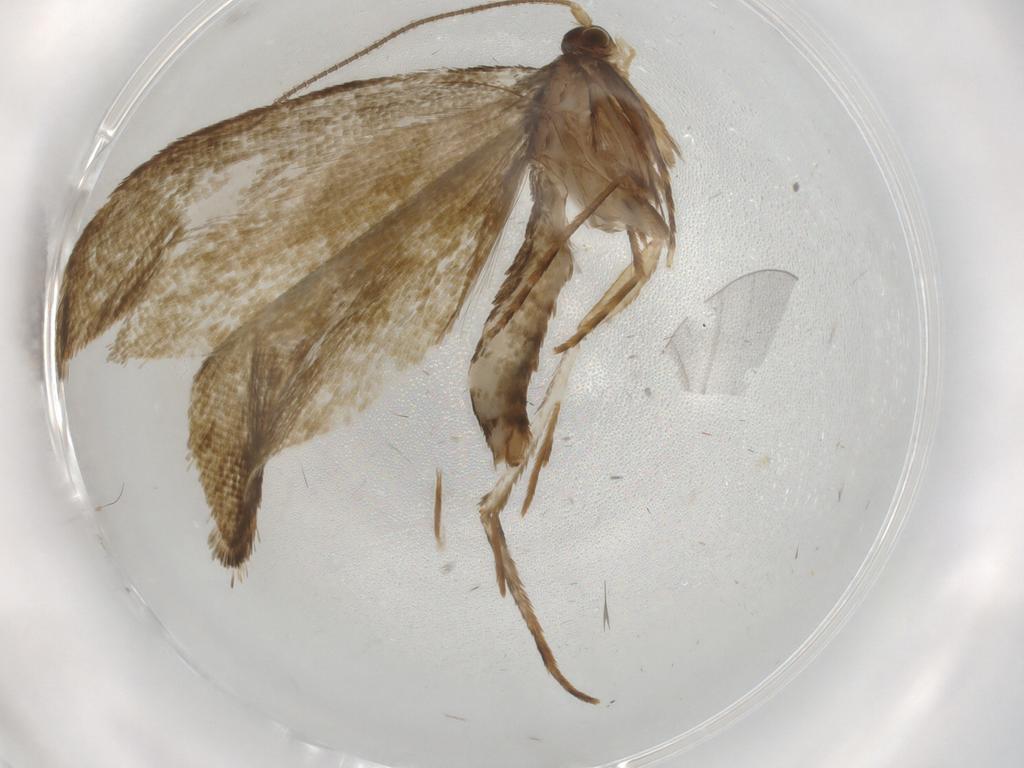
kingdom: Animalia
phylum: Arthropoda
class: Insecta
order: Lepidoptera
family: Tineidae
